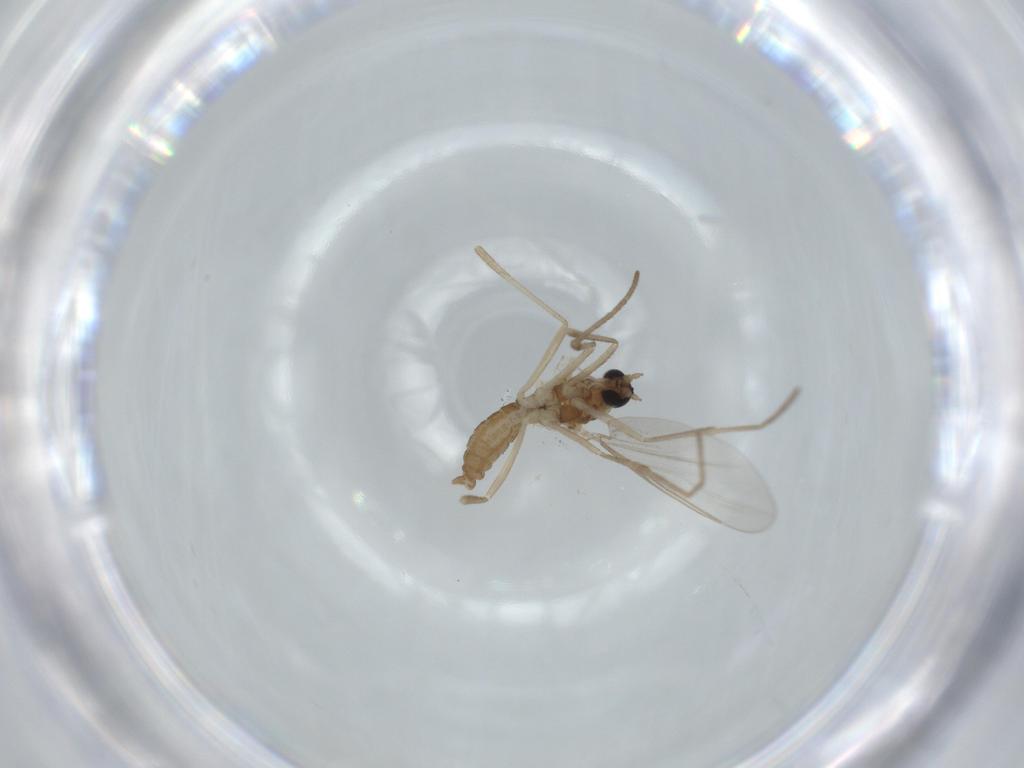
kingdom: Animalia
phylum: Arthropoda
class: Insecta
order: Diptera
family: Cecidomyiidae
